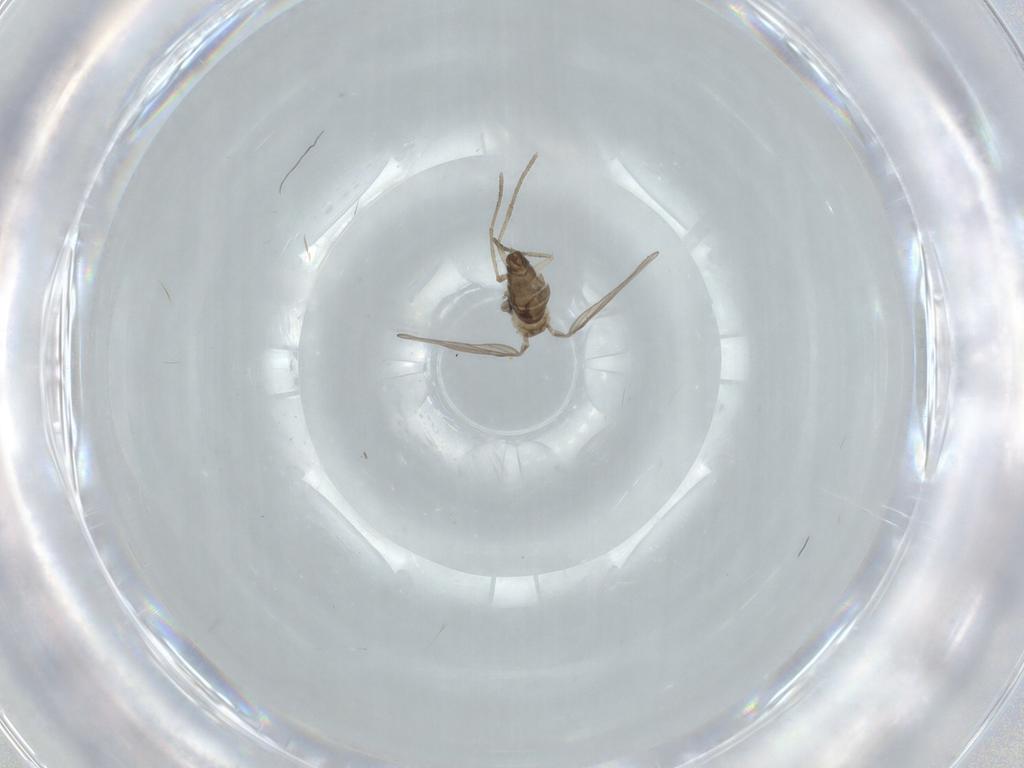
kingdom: Animalia
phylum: Arthropoda
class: Insecta
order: Diptera
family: Psychodidae
